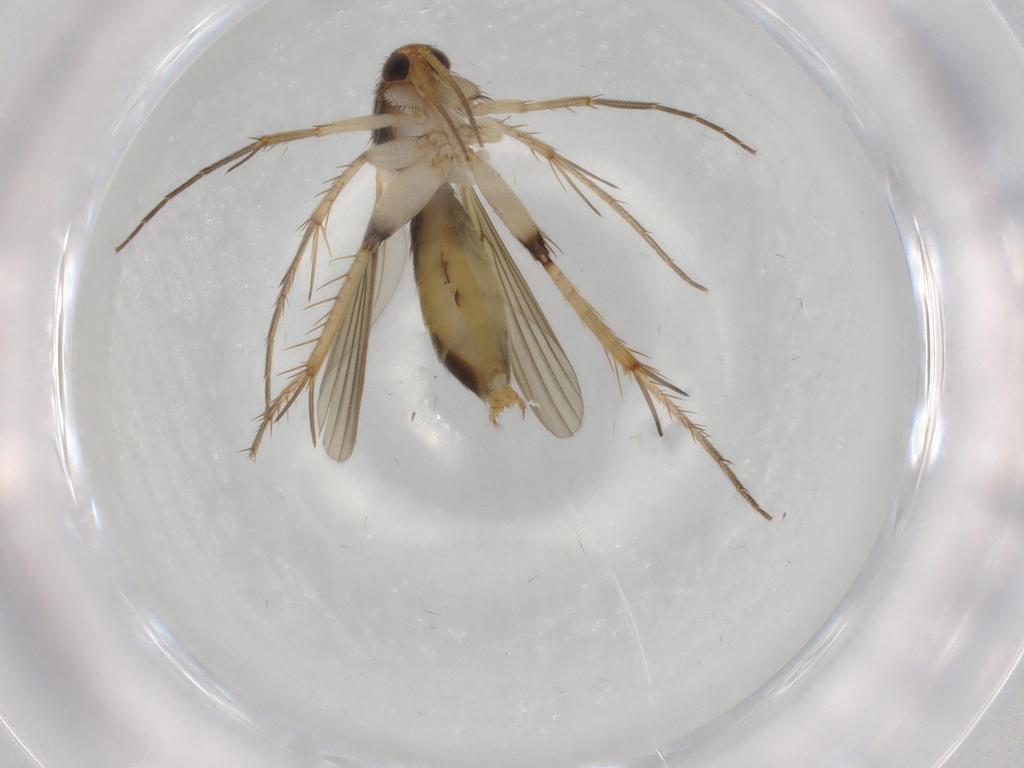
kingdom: Animalia
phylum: Arthropoda
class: Insecta
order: Diptera
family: Mycetophilidae
